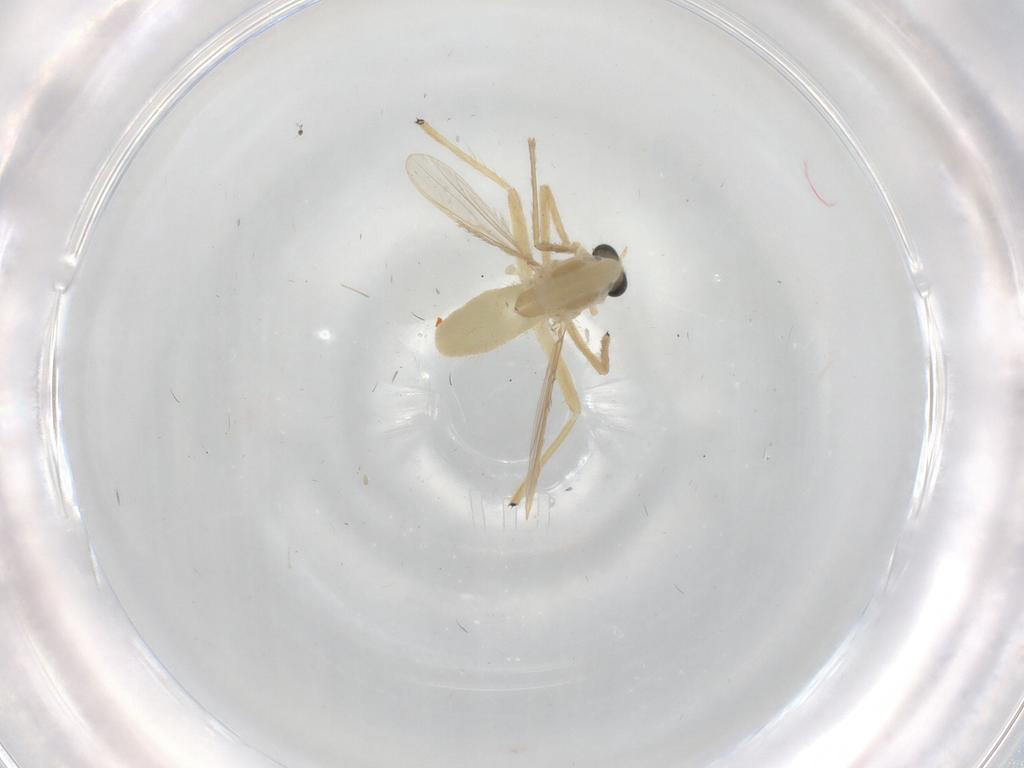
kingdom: Animalia
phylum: Arthropoda
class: Insecta
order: Diptera
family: Chironomidae
